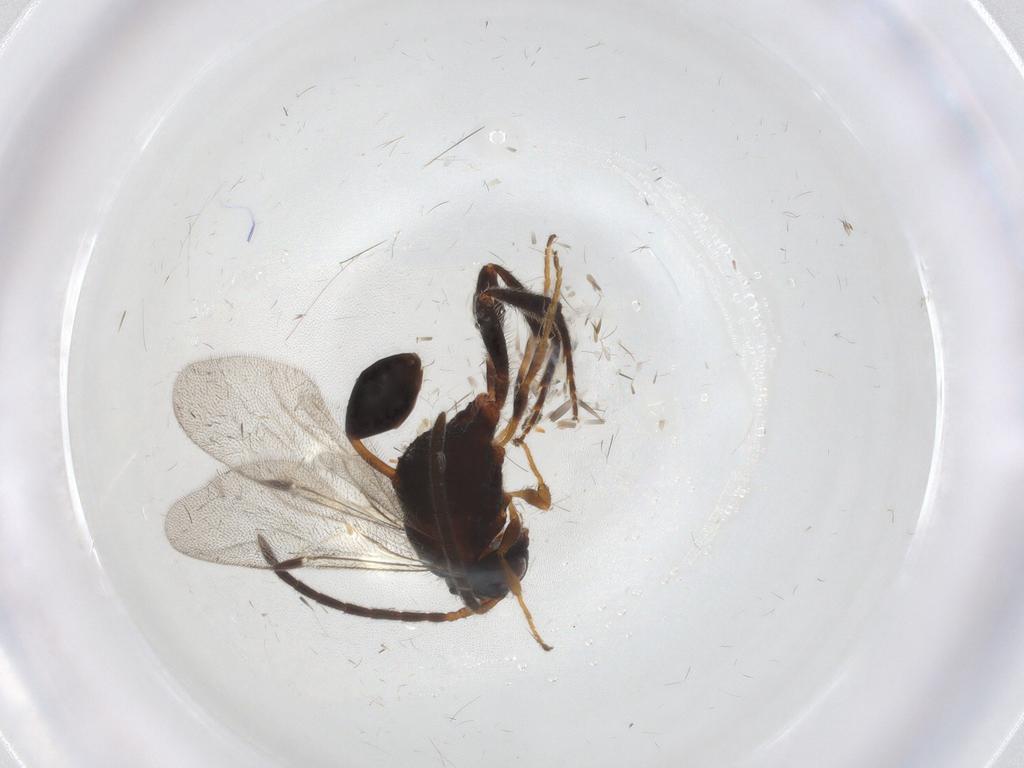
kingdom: Animalia
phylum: Arthropoda
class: Insecta
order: Hymenoptera
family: Evaniidae
